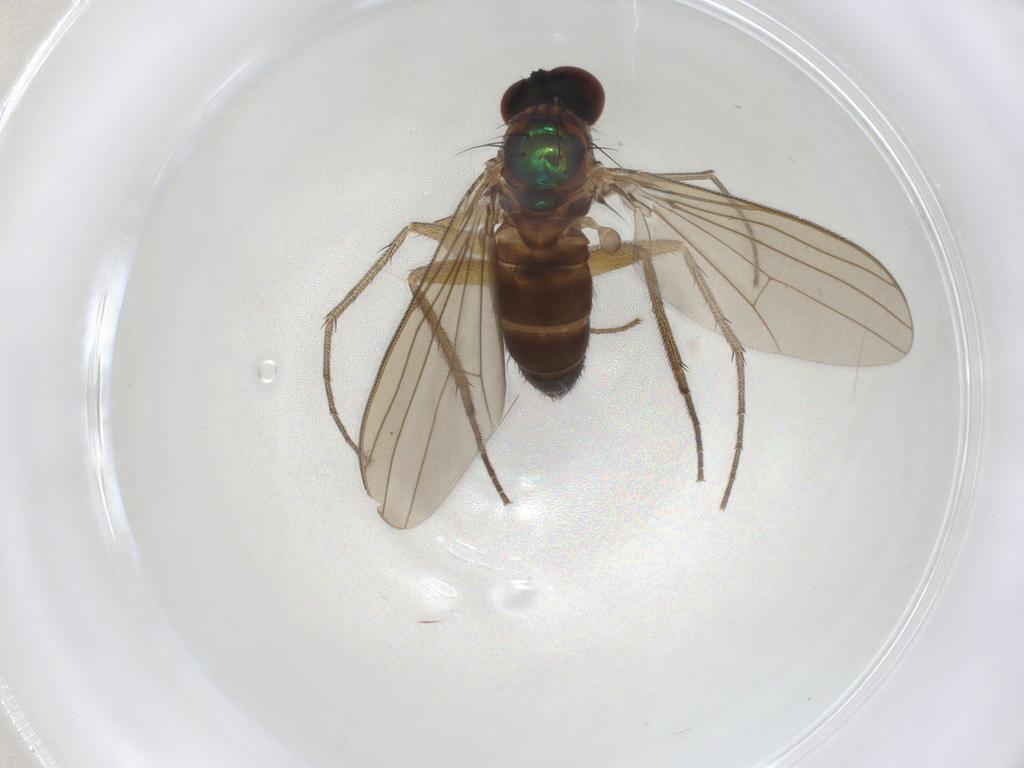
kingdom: Animalia
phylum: Arthropoda
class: Insecta
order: Diptera
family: Dolichopodidae
